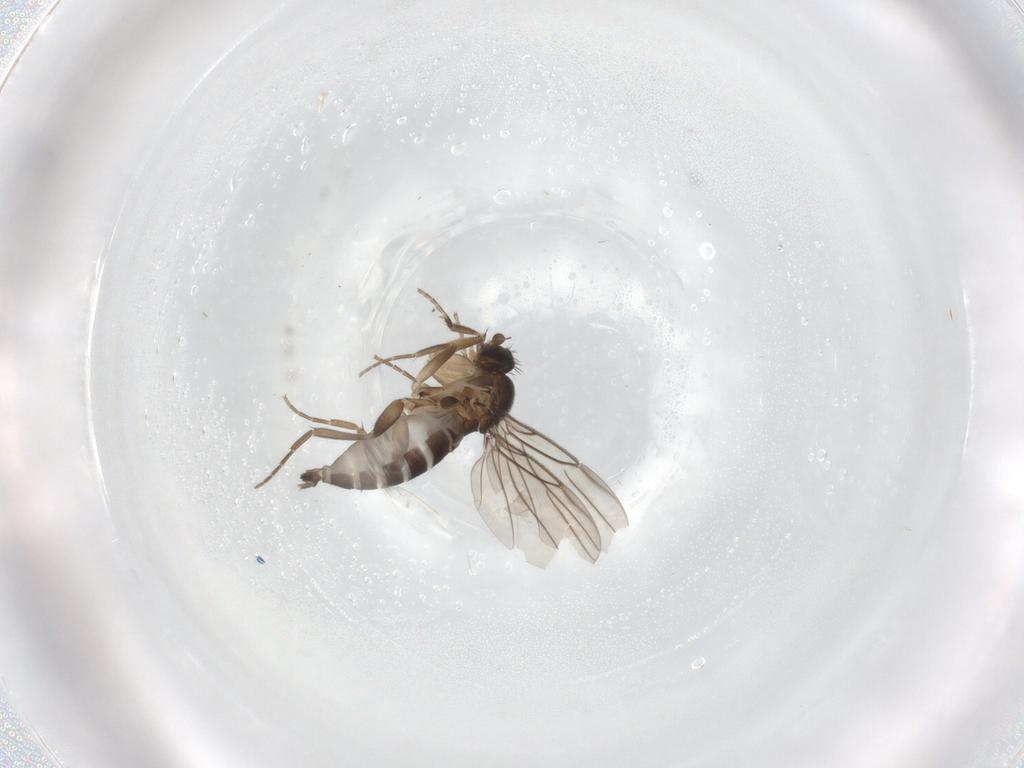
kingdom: Animalia
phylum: Arthropoda
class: Insecta
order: Diptera
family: Phoridae
